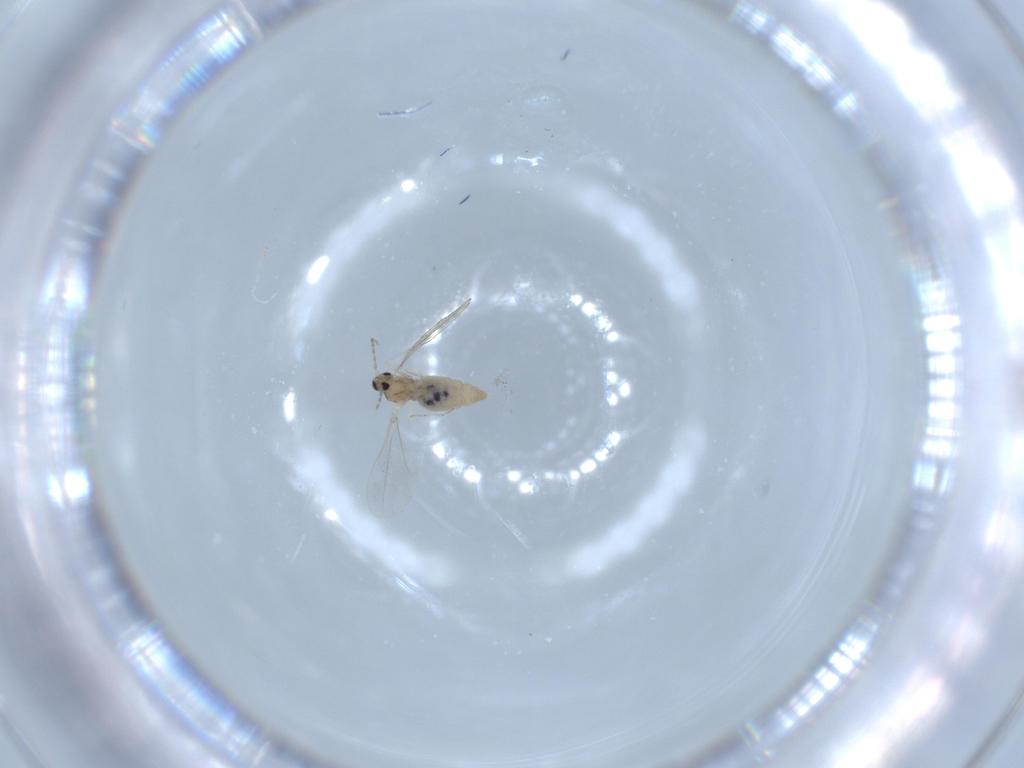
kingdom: Animalia
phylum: Arthropoda
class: Insecta
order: Diptera
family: Cecidomyiidae
